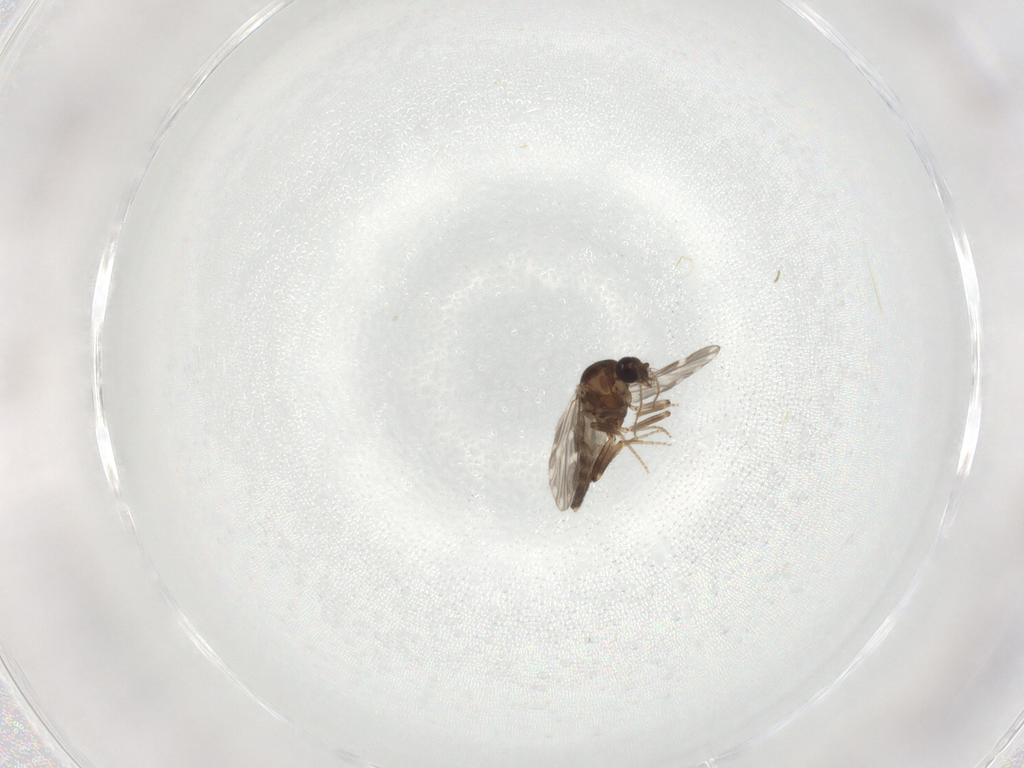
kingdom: Animalia
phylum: Arthropoda
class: Insecta
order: Diptera
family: Ceratopogonidae
